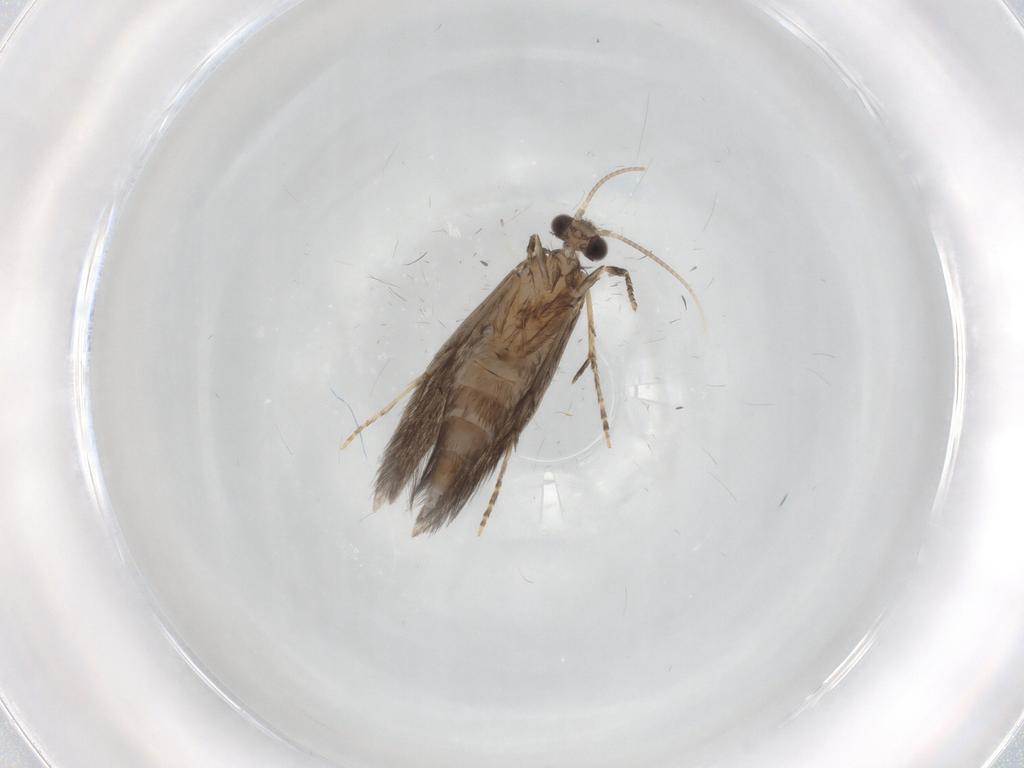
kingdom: Animalia
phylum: Arthropoda
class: Insecta
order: Trichoptera
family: Hydroptilidae
